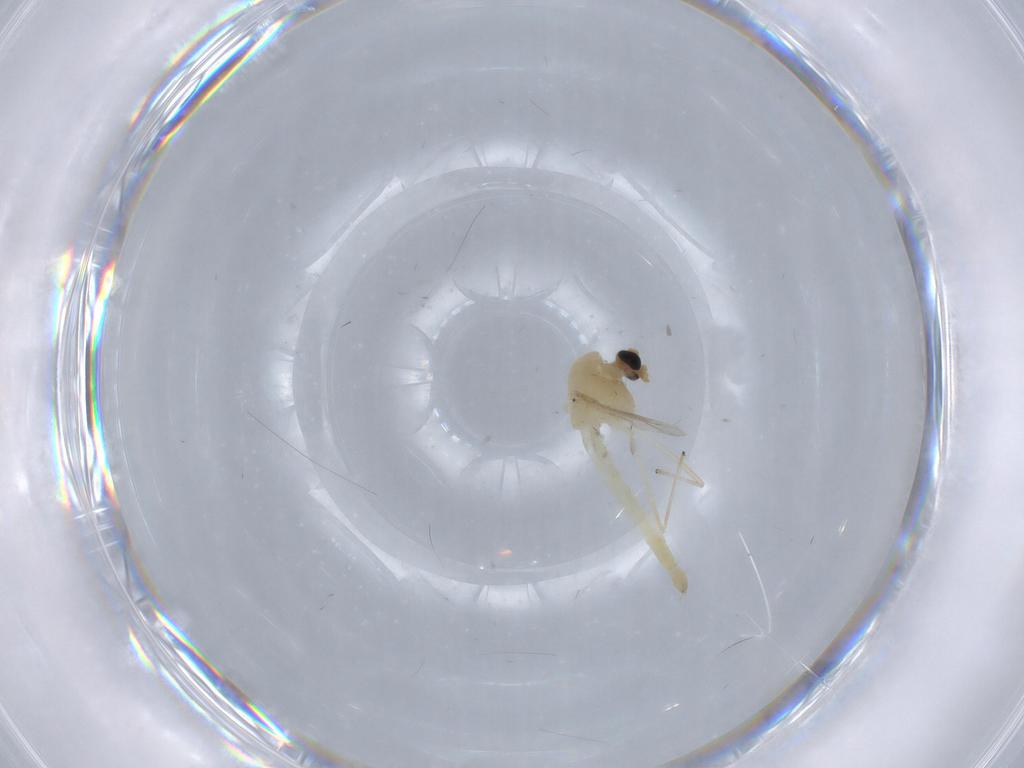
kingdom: Animalia
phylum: Arthropoda
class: Insecta
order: Diptera
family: Chironomidae
